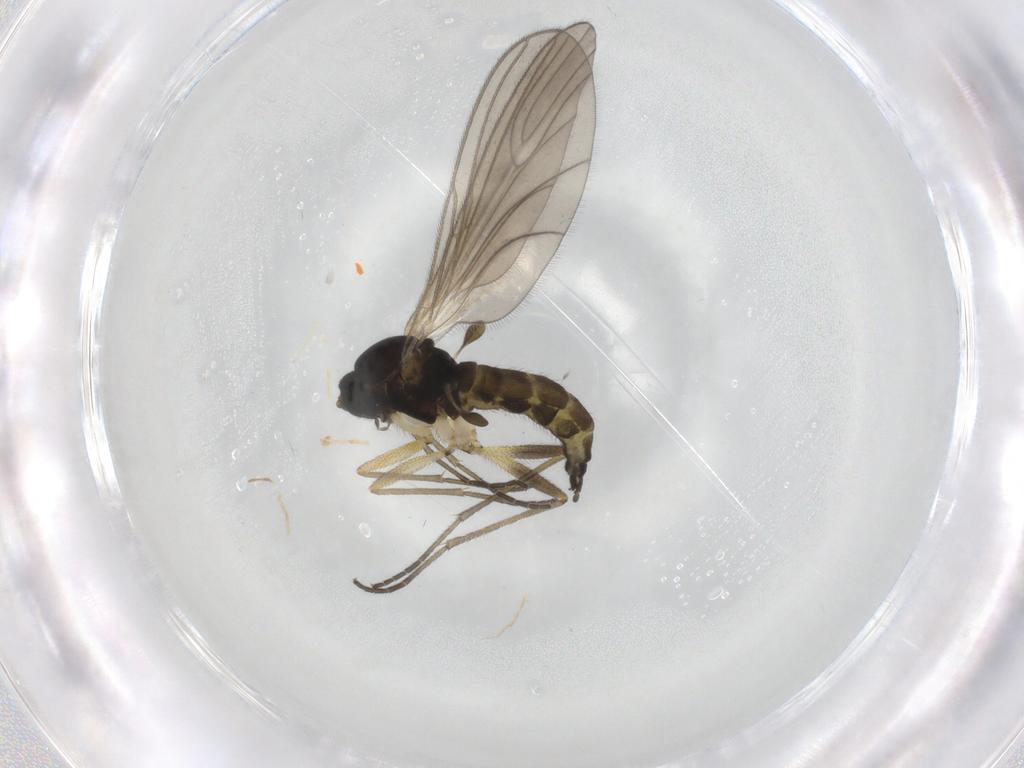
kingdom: Animalia
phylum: Arthropoda
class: Insecta
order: Diptera
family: Sciaridae
